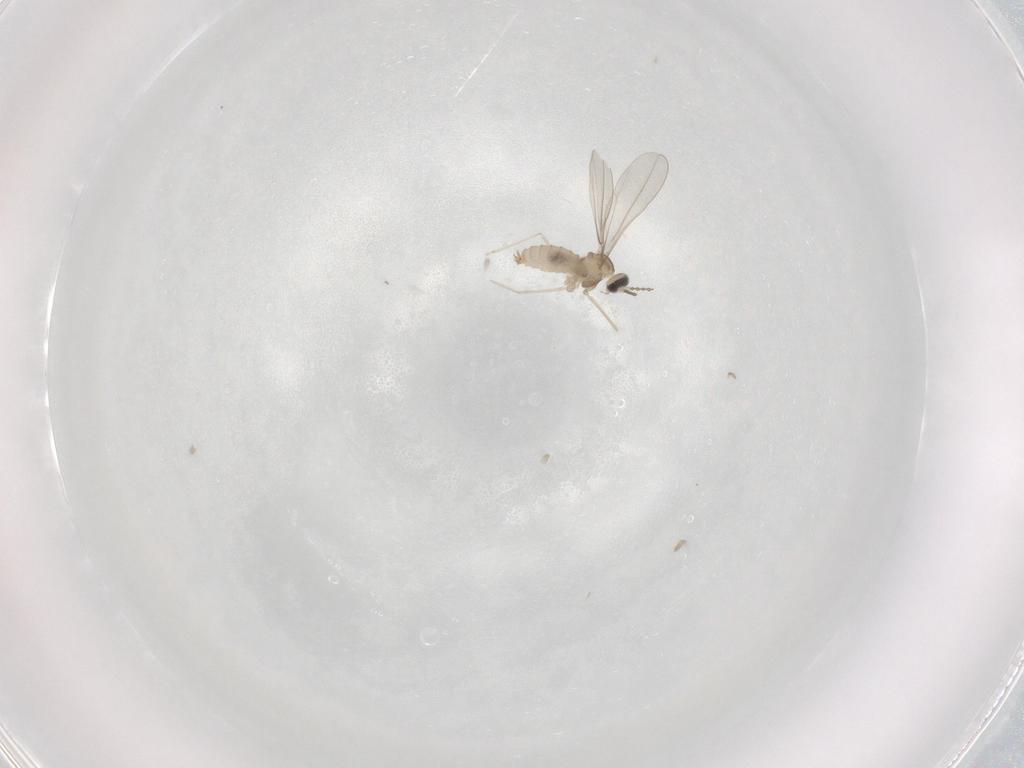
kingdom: Animalia
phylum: Arthropoda
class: Insecta
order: Diptera
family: Cecidomyiidae
